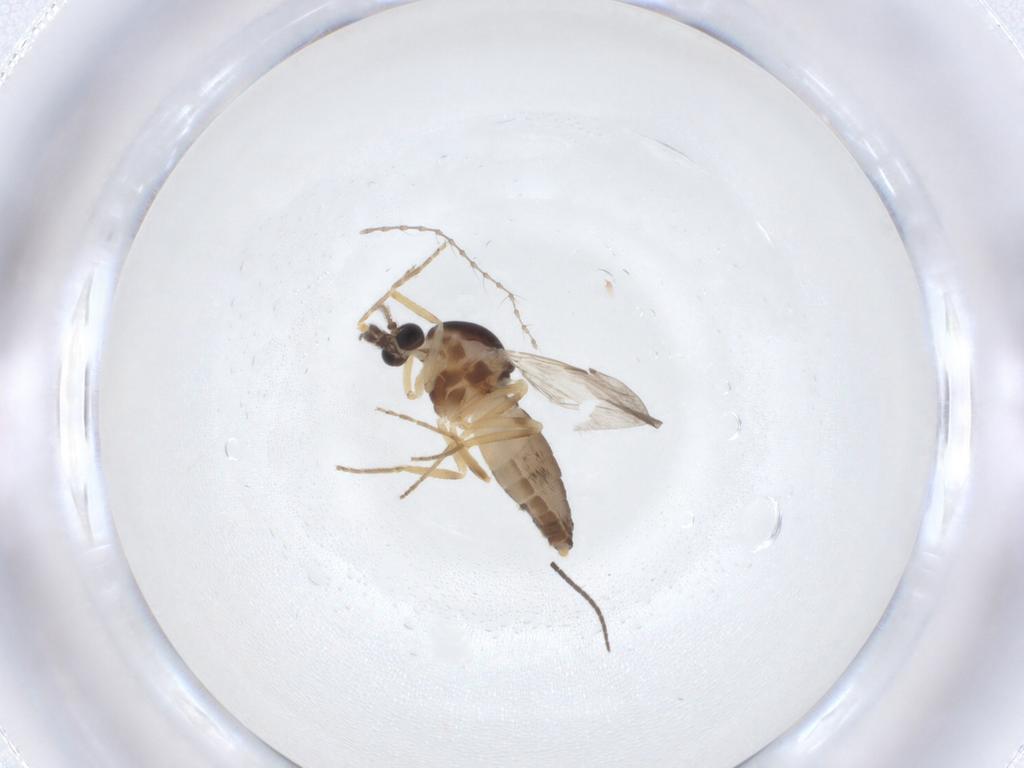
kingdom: Animalia
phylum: Arthropoda
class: Insecta
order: Diptera
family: Ceratopogonidae
